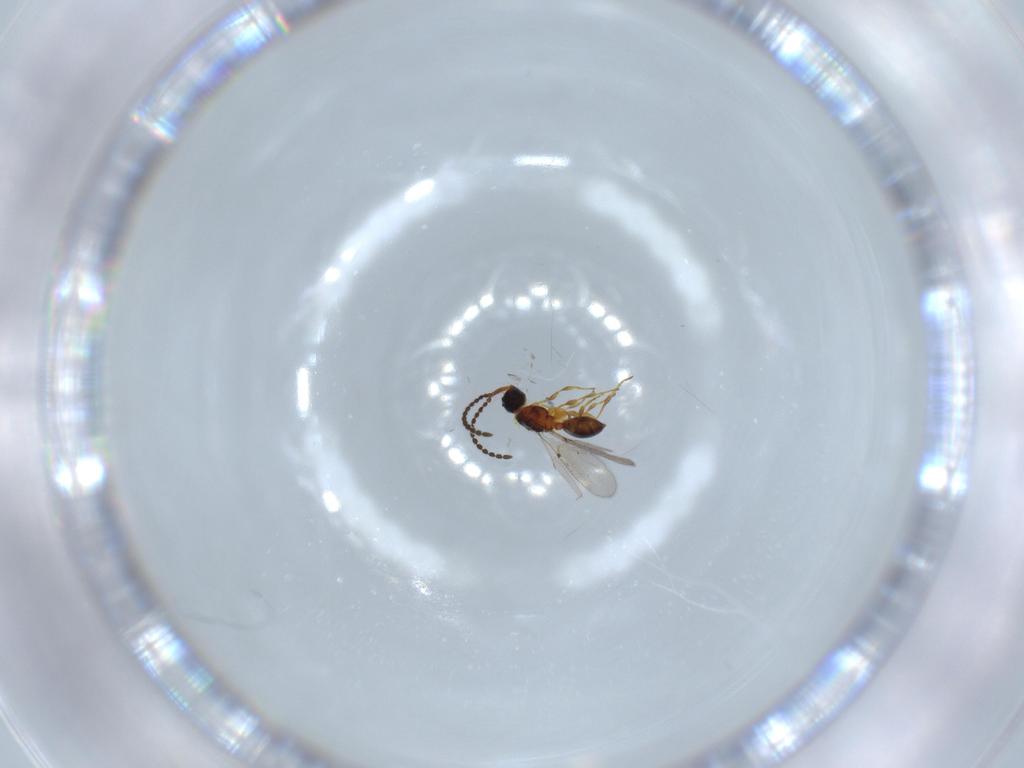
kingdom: Animalia
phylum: Arthropoda
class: Insecta
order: Hymenoptera
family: Diapriidae
